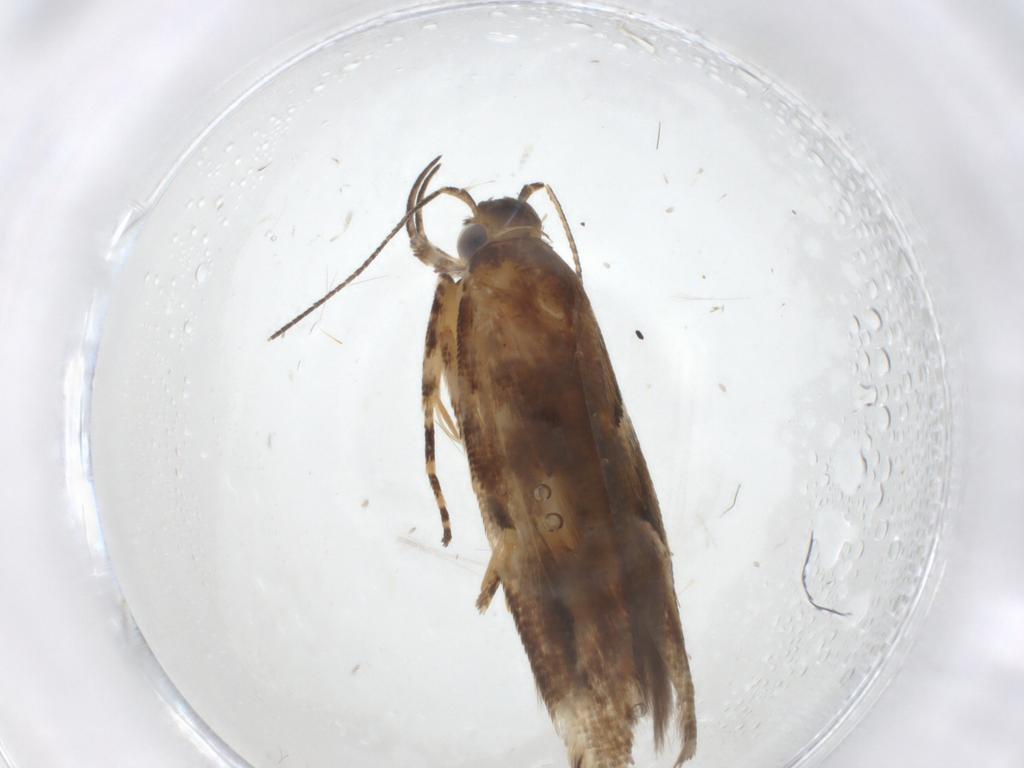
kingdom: Animalia
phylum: Arthropoda
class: Insecta
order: Lepidoptera
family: Gelechiidae
